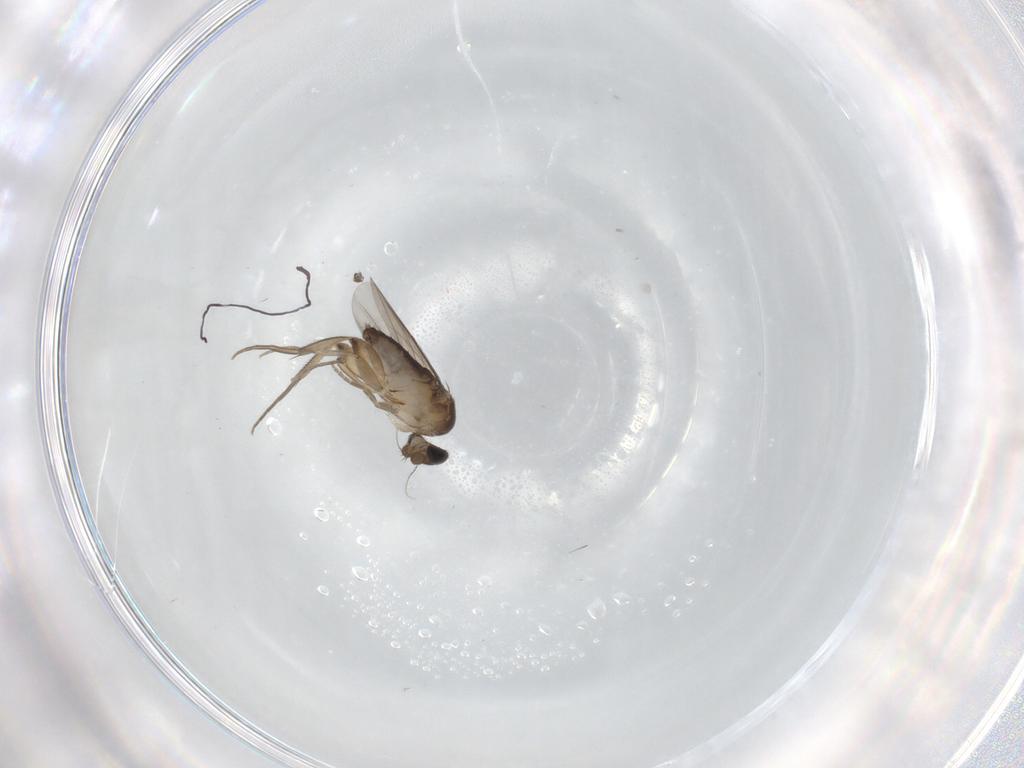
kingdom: Animalia
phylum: Arthropoda
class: Insecta
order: Diptera
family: Phoridae
